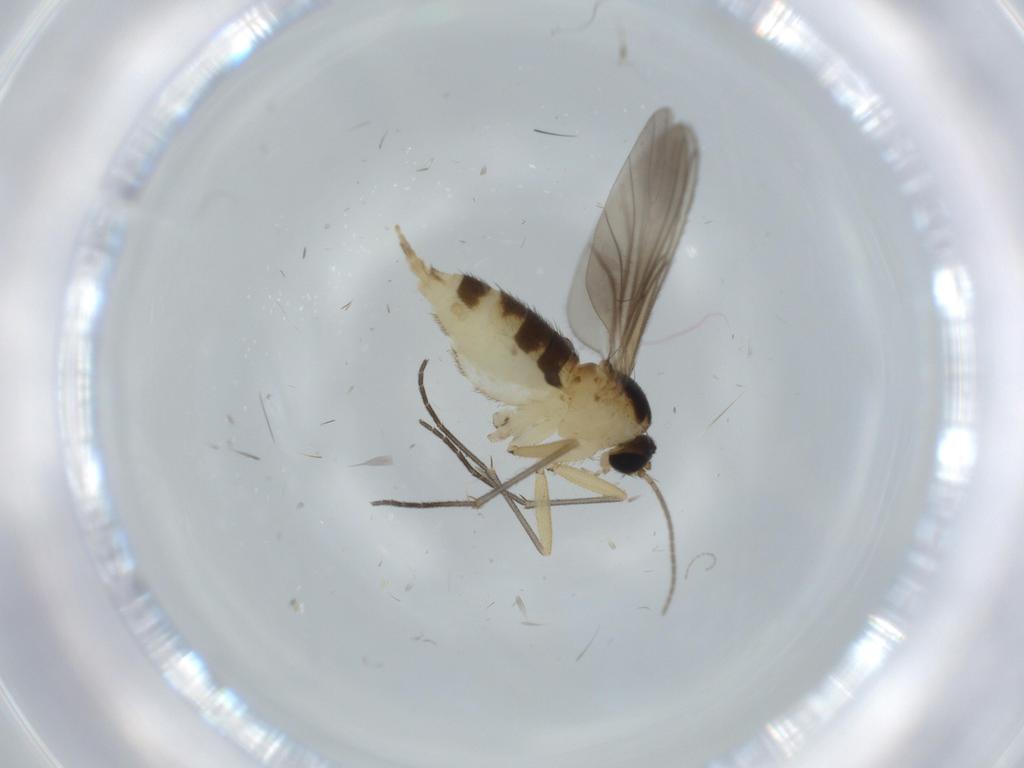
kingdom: Animalia
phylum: Arthropoda
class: Insecta
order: Diptera
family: Sciaridae
